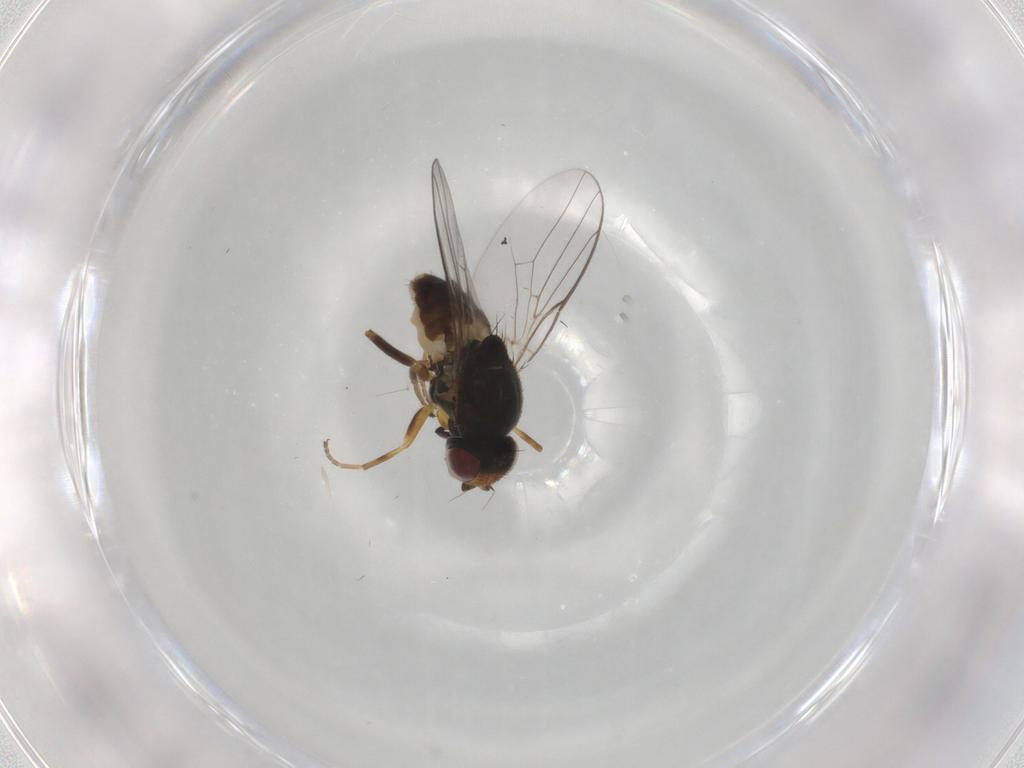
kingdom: Animalia
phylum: Arthropoda
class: Insecta
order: Diptera
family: Chloropidae
